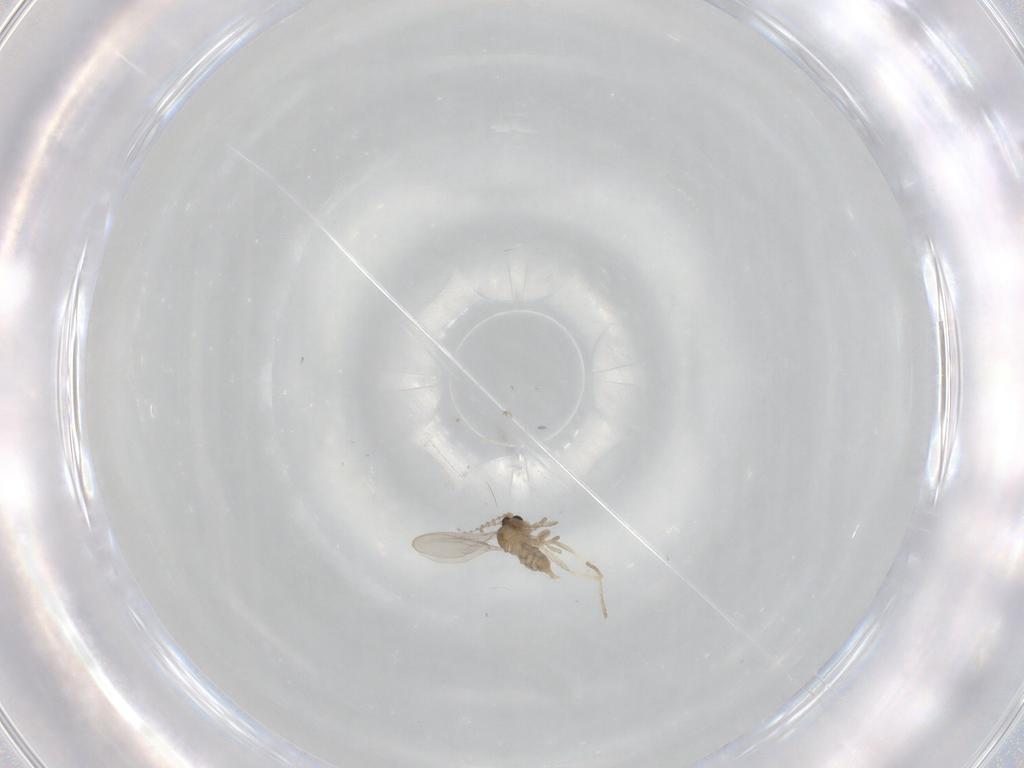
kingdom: Animalia
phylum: Arthropoda
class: Insecta
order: Diptera
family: Cecidomyiidae
